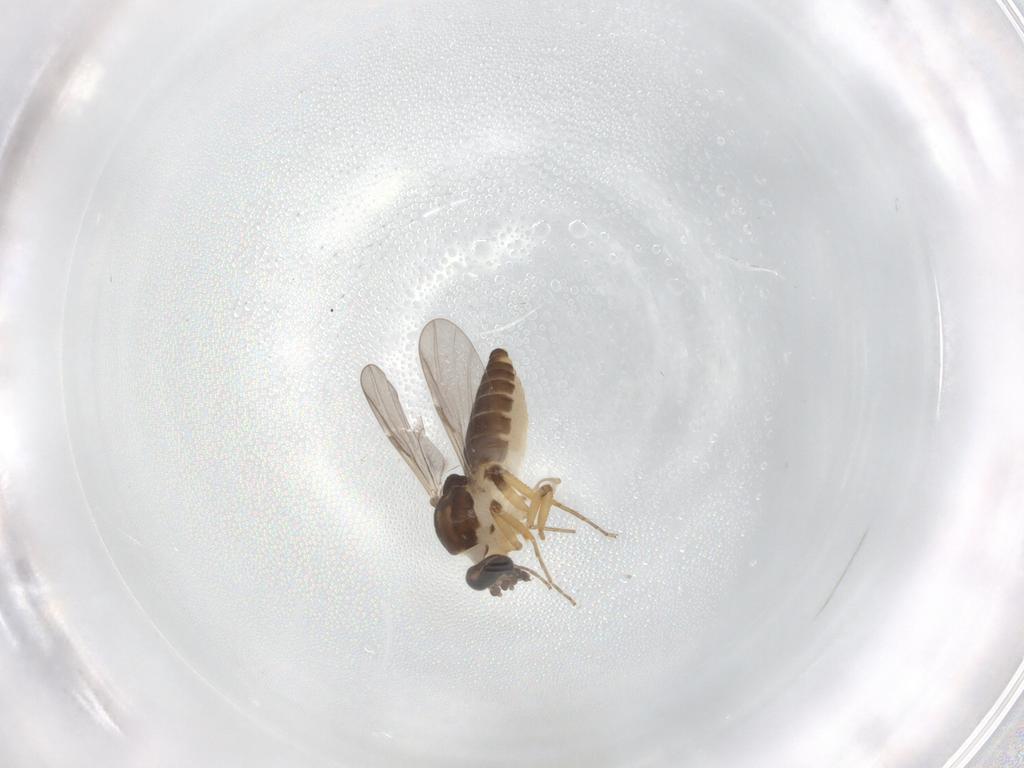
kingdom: Animalia
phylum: Arthropoda
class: Insecta
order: Diptera
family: Ceratopogonidae
